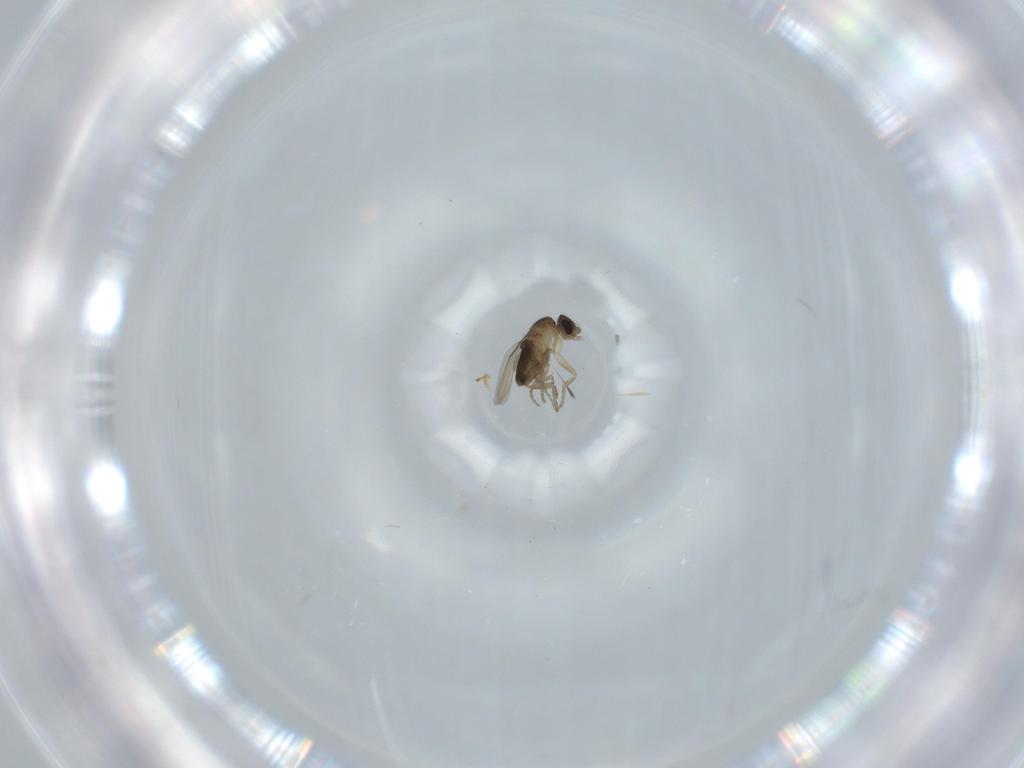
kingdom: Animalia
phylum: Arthropoda
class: Insecta
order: Diptera
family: Phoridae
